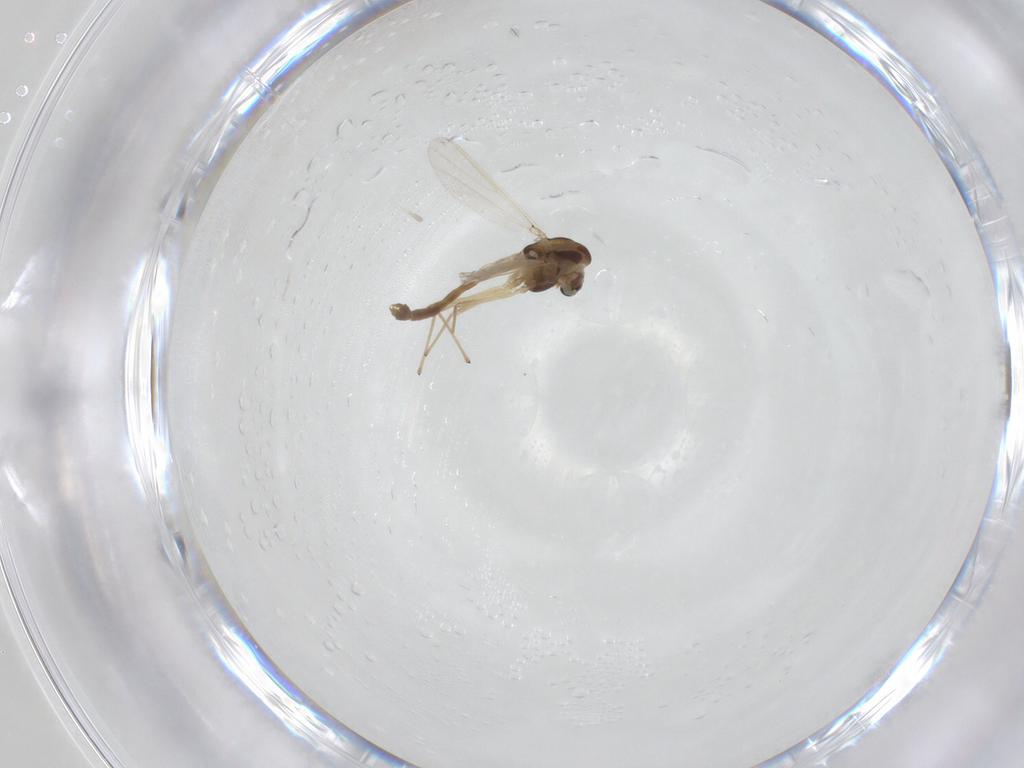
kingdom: Animalia
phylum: Arthropoda
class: Insecta
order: Diptera
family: Chironomidae
